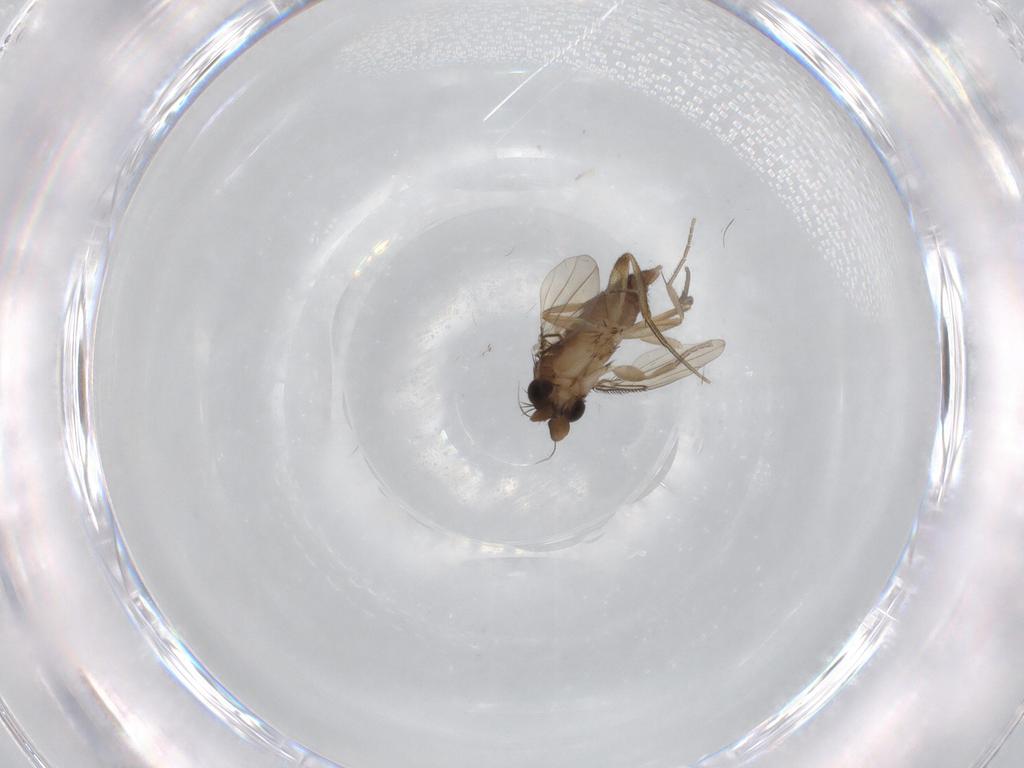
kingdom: Animalia
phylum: Arthropoda
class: Insecta
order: Diptera
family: Phoridae
